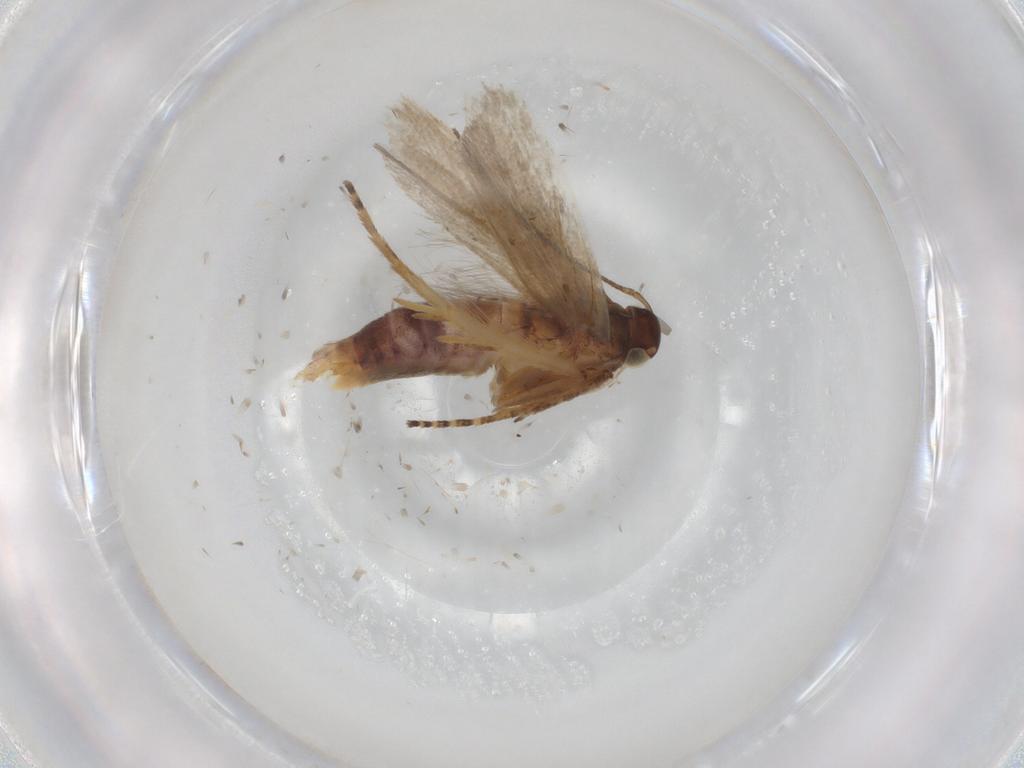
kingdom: Animalia
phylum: Arthropoda
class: Insecta
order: Lepidoptera
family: Gelechiidae
